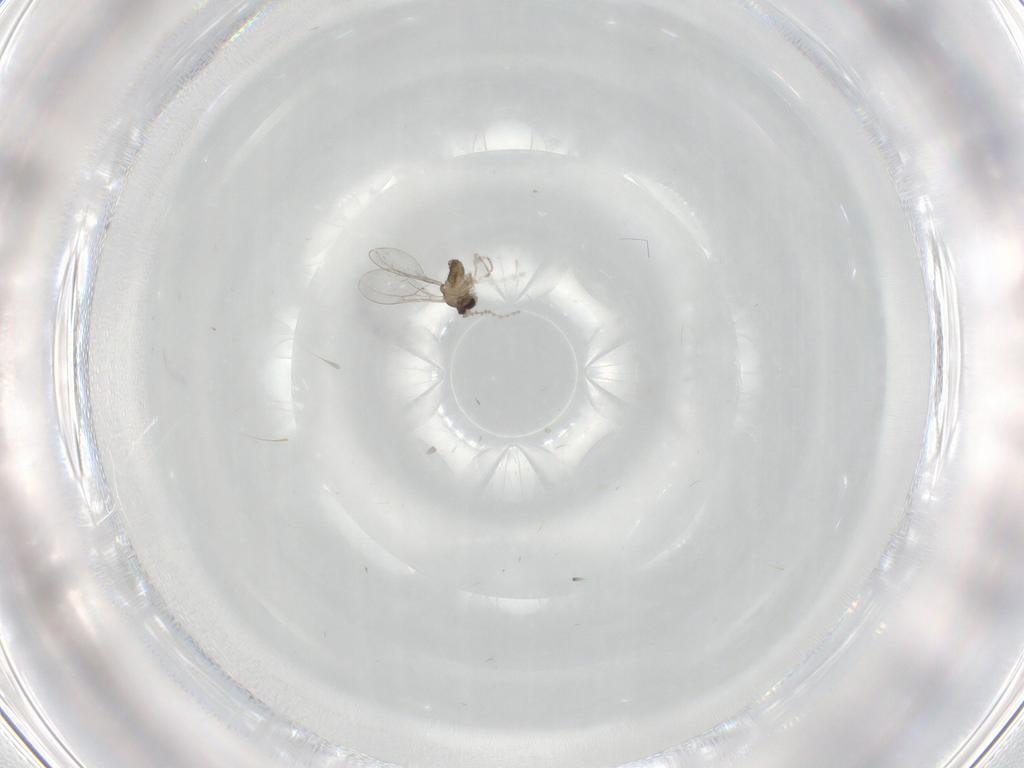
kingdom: Animalia
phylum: Arthropoda
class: Insecta
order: Diptera
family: Cecidomyiidae
